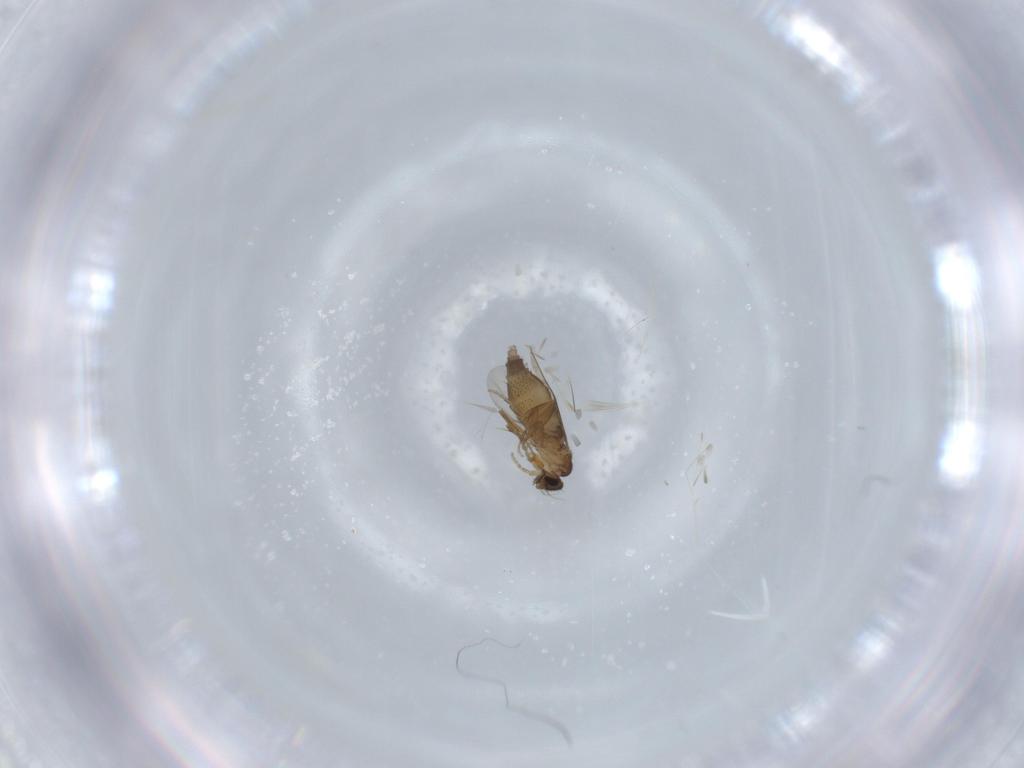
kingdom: Animalia
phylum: Arthropoda
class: Insecta
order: Diptera
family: Phoridae
